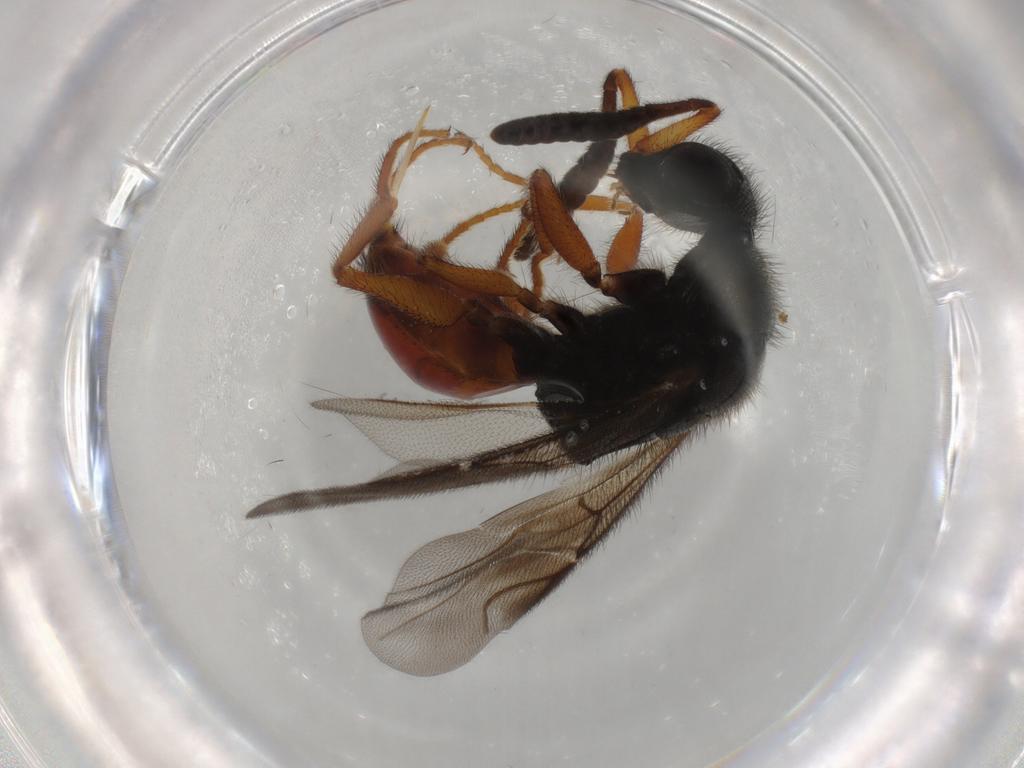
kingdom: Animalia
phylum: Arthropoda
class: Insecta
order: Hymenoptera
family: Chrysididae
